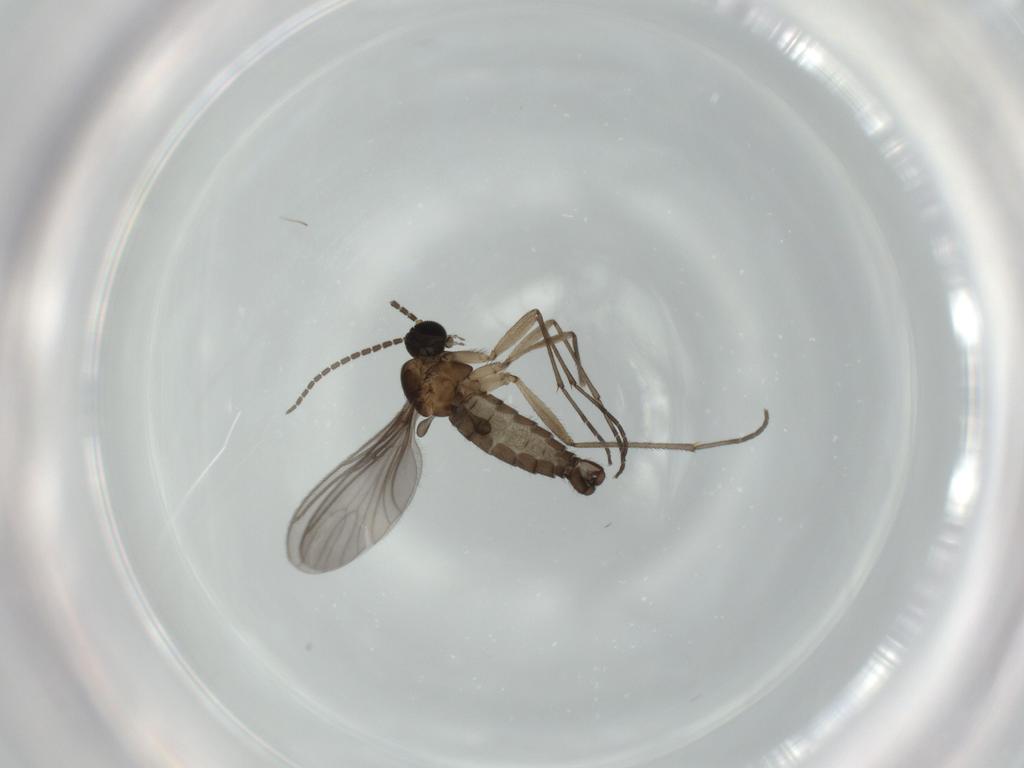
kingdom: Animalia
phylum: Arthropoda
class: Insecta
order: Diptera
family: Sciaridae
